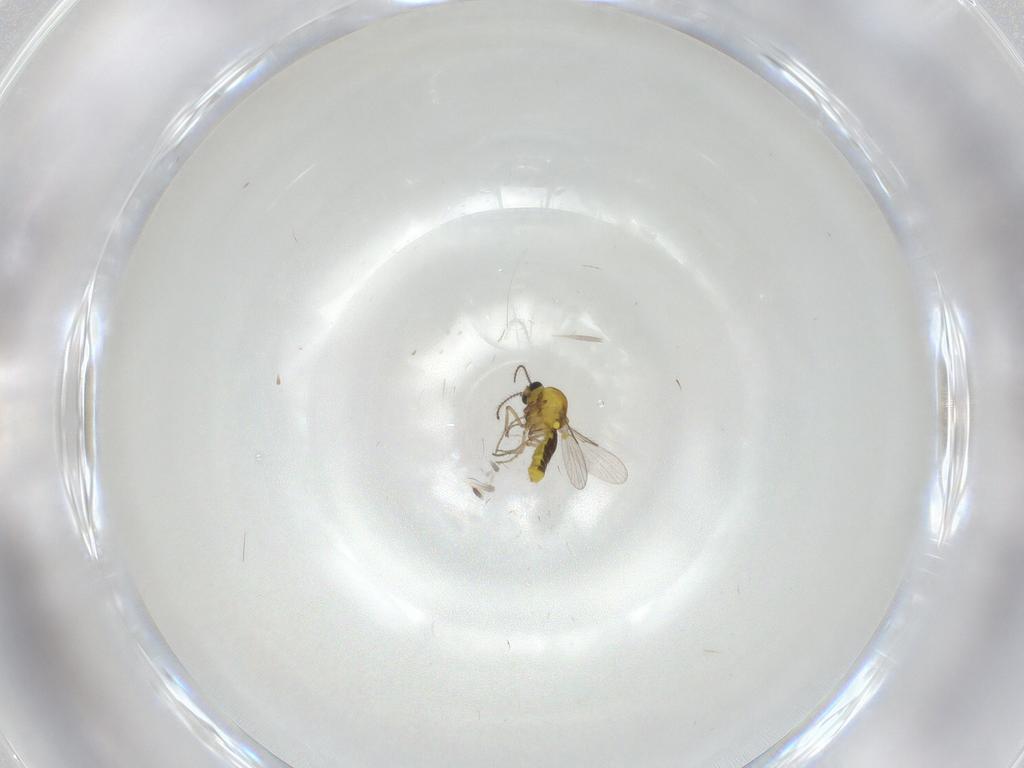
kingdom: Animalia
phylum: Arthropoda
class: Insecta
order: Diptera
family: Ceratopogonidae
